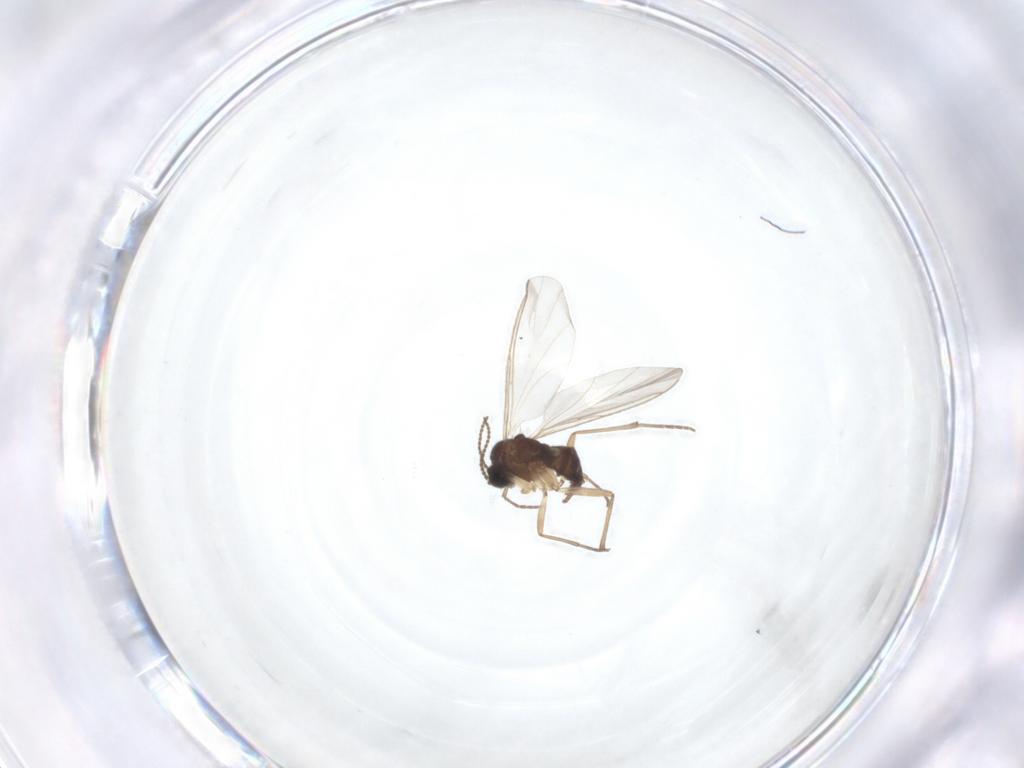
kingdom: Animalia
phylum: Arthropoda
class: Insecta
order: Diptera
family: Sciaridae
